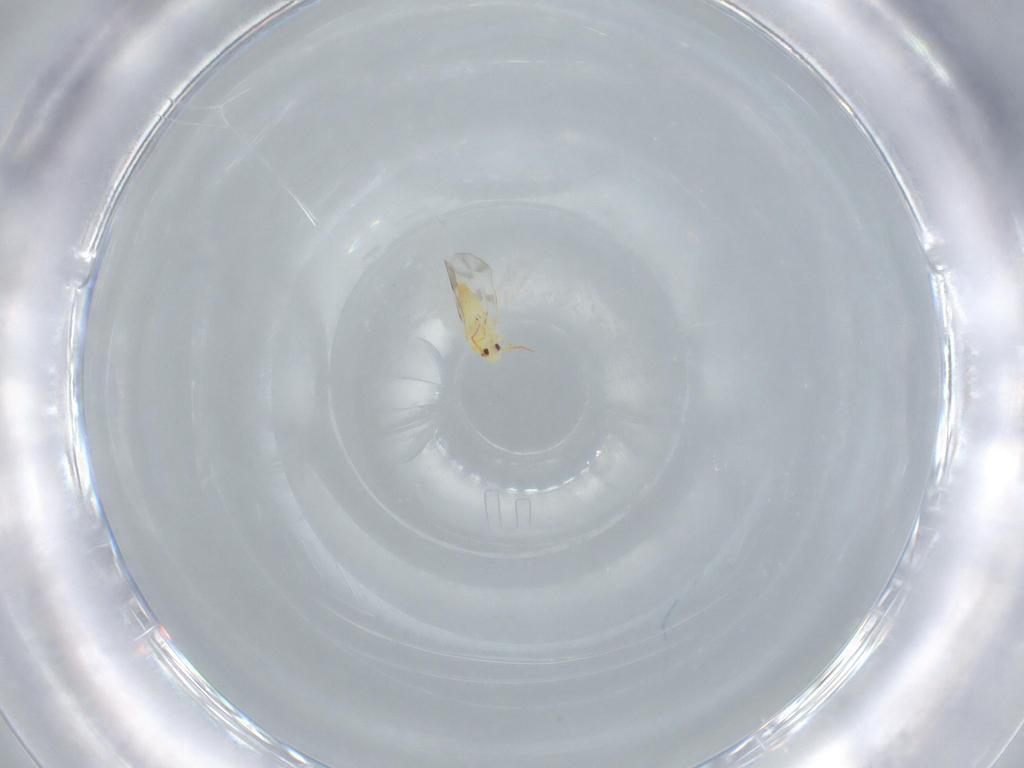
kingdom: Animalia
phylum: Arthropoda
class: Insecta
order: Hemiptera
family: Aleyrodidae
